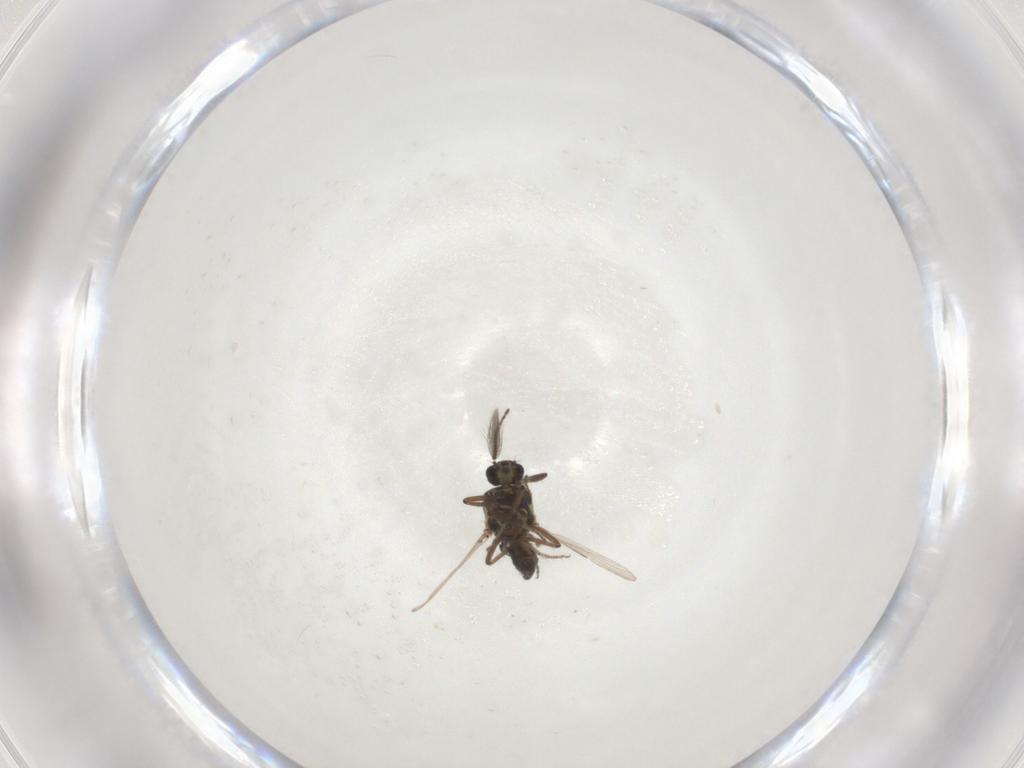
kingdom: Animalia
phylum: Arthropoda
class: Insecta
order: Diptera
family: Ceratopogonidae
